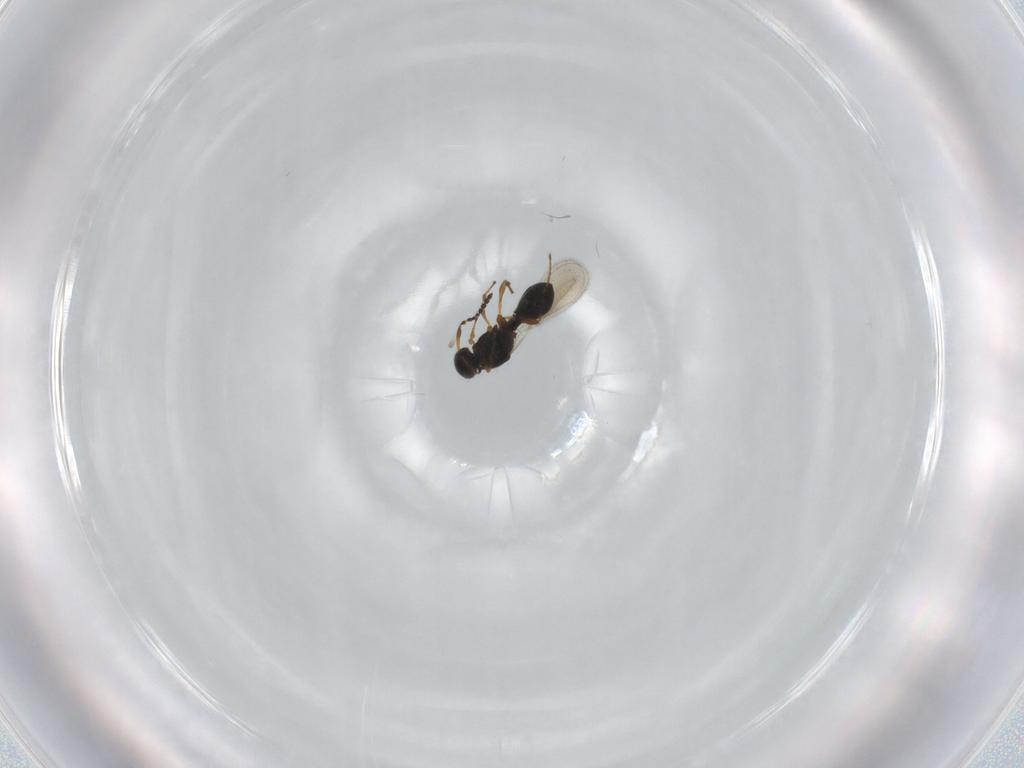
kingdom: Animalia
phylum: Arthropoda
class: Insecta
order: Hymenoptera
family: Platygastridae
